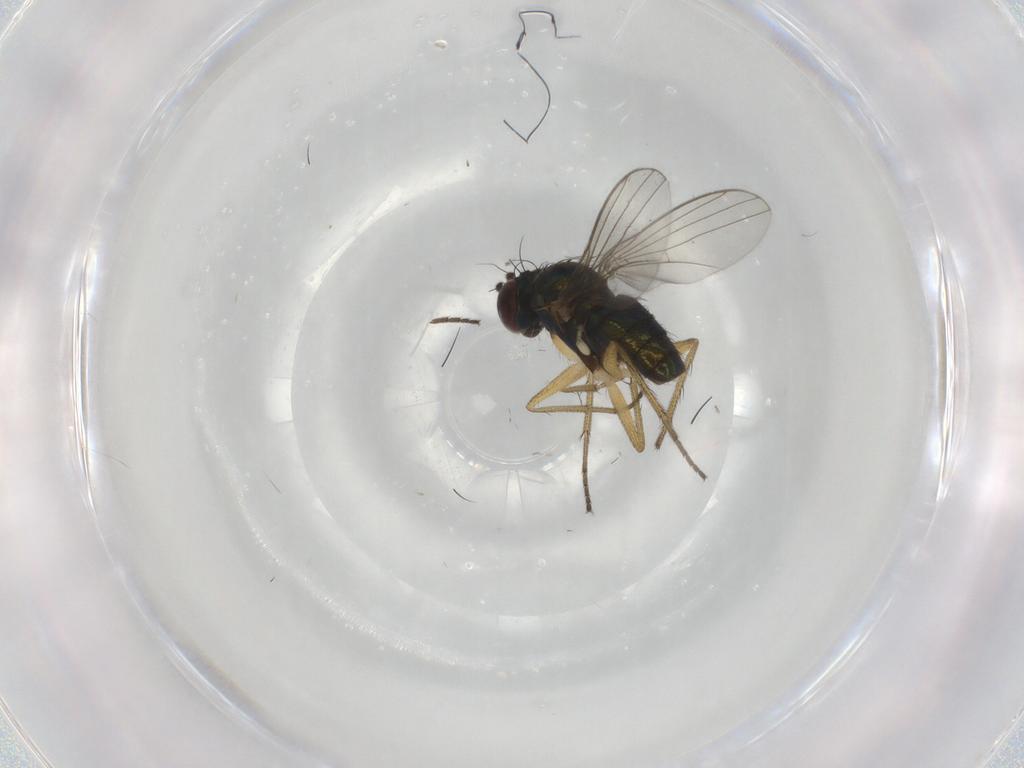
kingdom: Animalia
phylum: Arthropoda
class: Insecta
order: Diptera
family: Dolichopodidae
